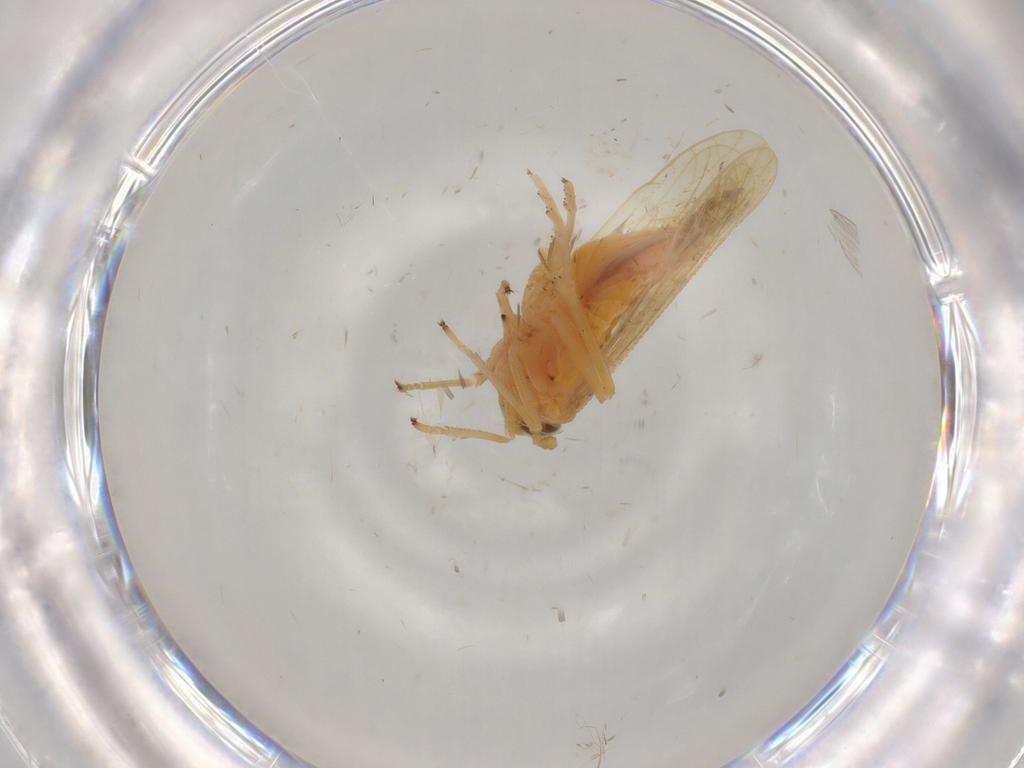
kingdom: Animalia
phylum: Arthropoda
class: Insecta
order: Hemiptera
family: Delphacidae
